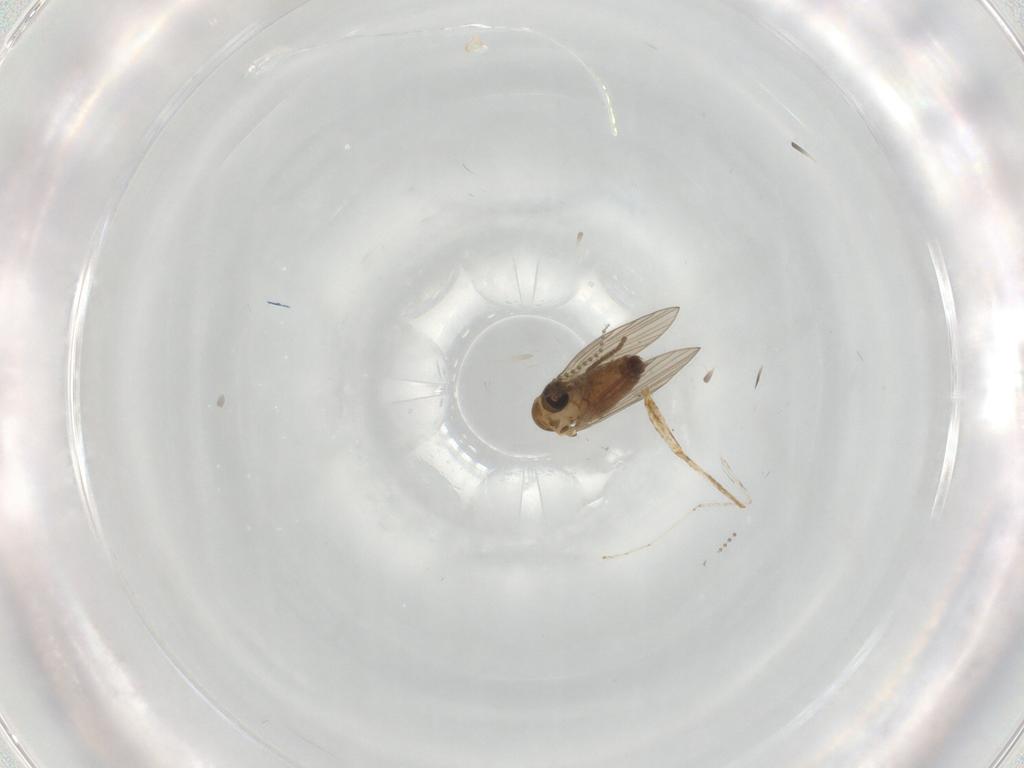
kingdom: Animalia
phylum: Arthropoda
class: Insecta
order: Diptera
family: Psychodidae
